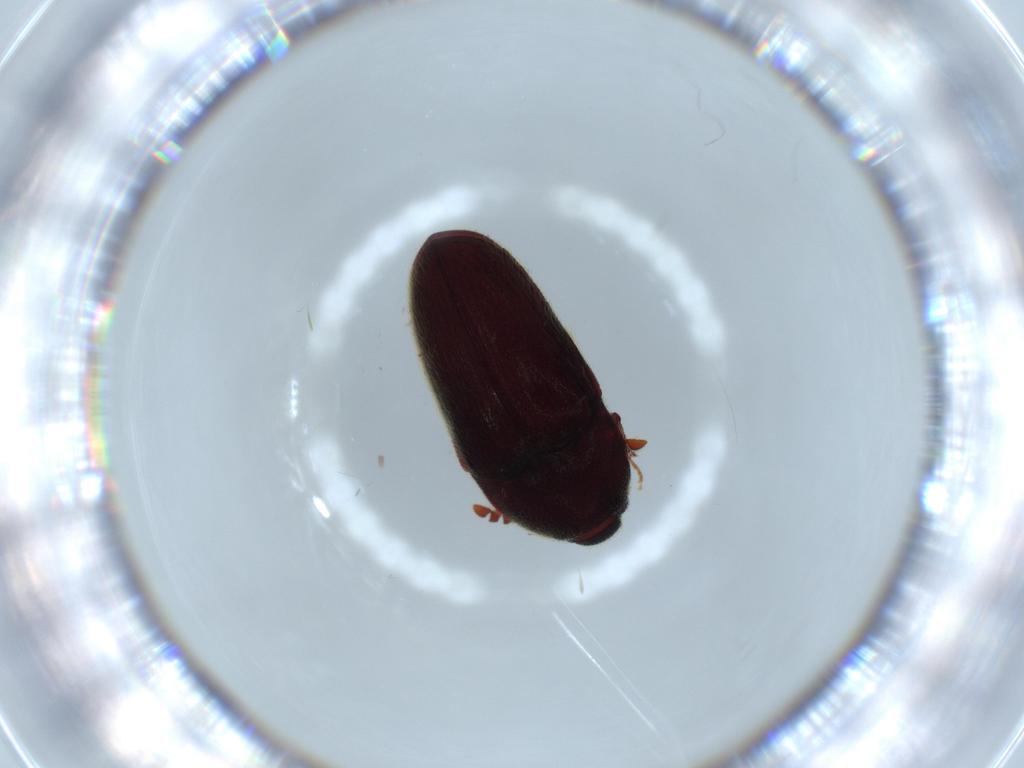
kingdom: Animalia
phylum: Arthropoda
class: Insecta
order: Coleoptera
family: Throscidae
